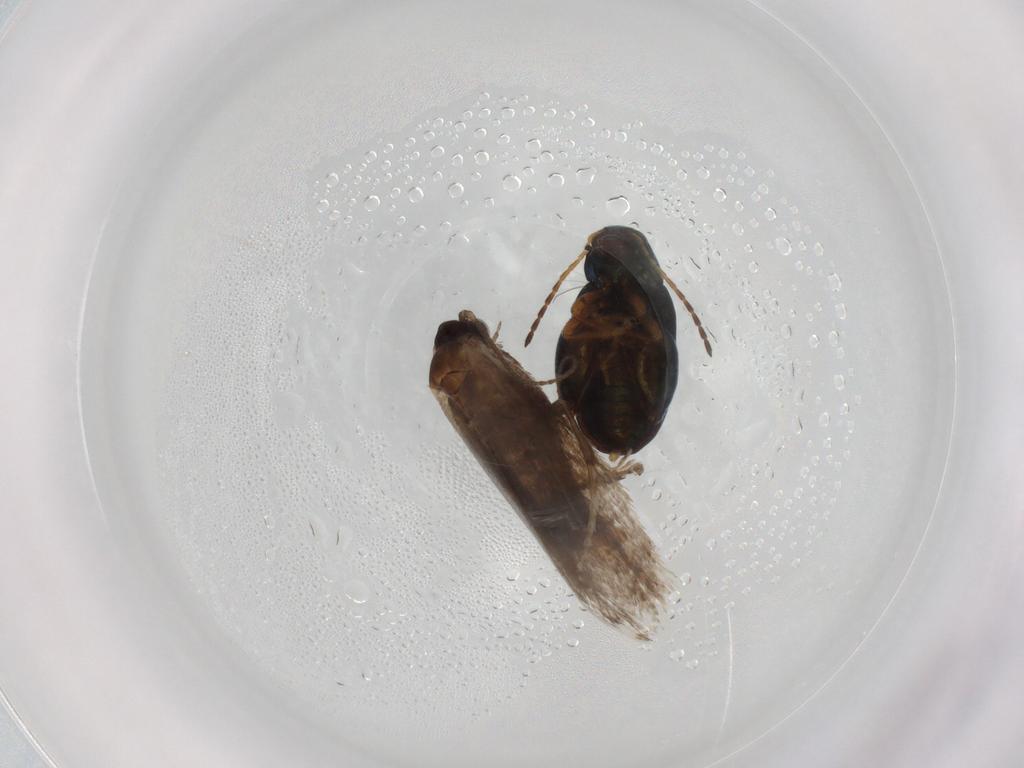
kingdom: Animalia
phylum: Arthropoda
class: Insecta
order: Coleoptera
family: Chrysomelidae
